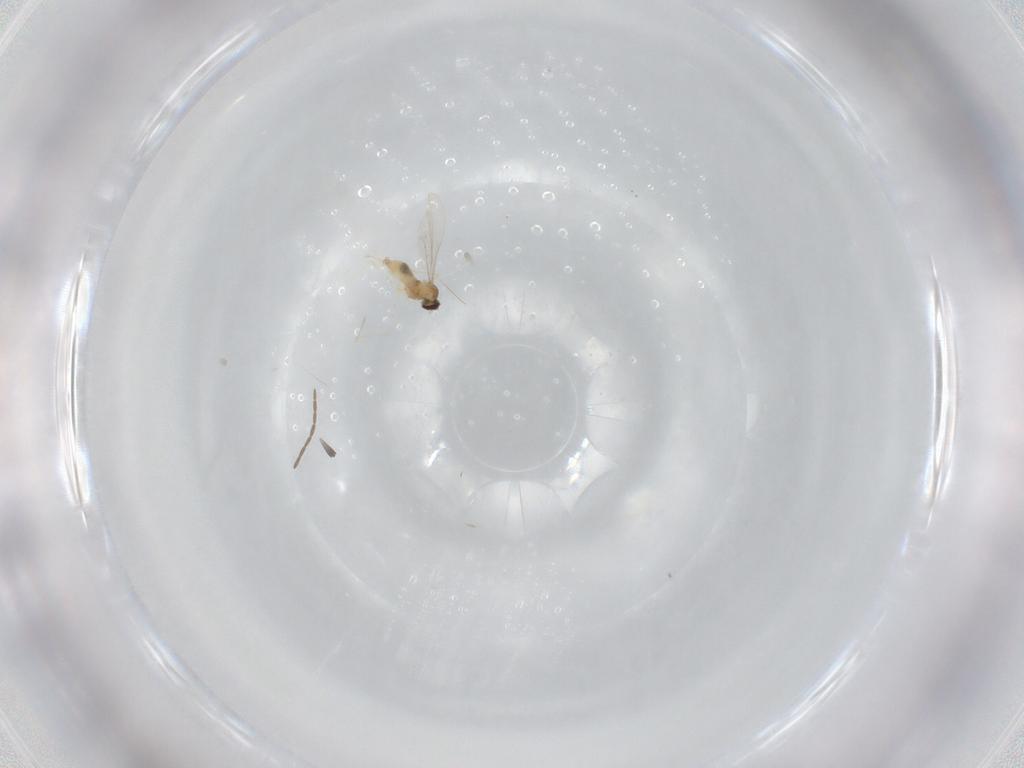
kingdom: Animalia
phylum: Arthropoda
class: Insecta
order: Diptera
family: Cecidomyiidae
